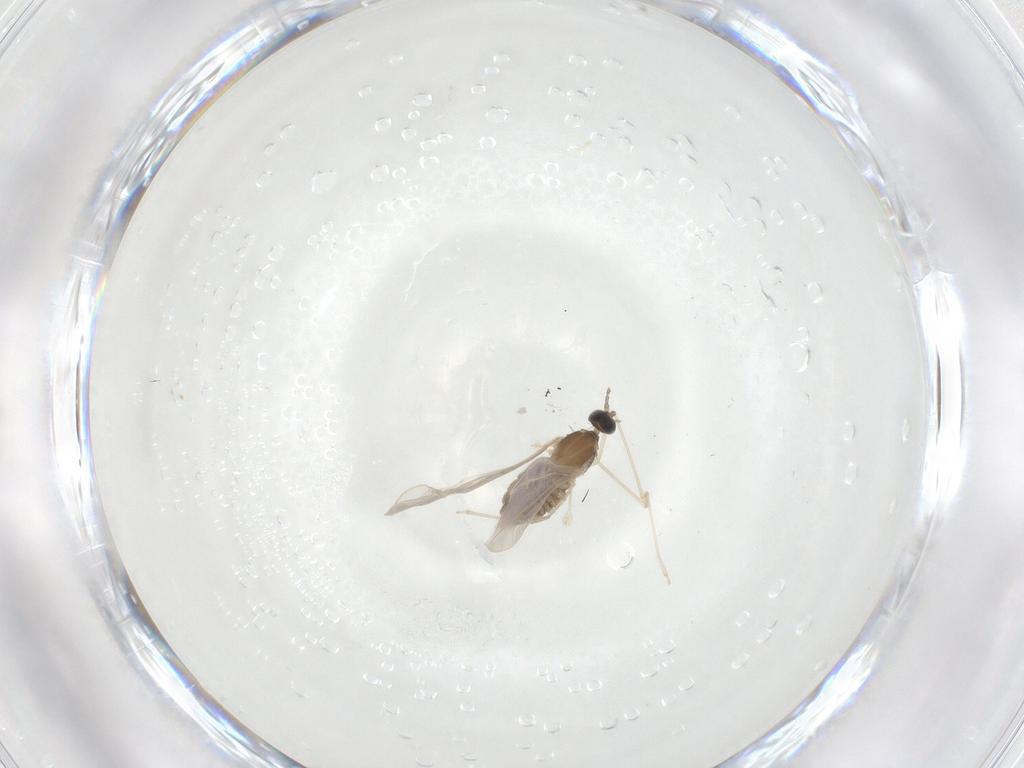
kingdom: Animalia
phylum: Arthropoda
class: Insecta
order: Diptera
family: Cecidomyiidae
